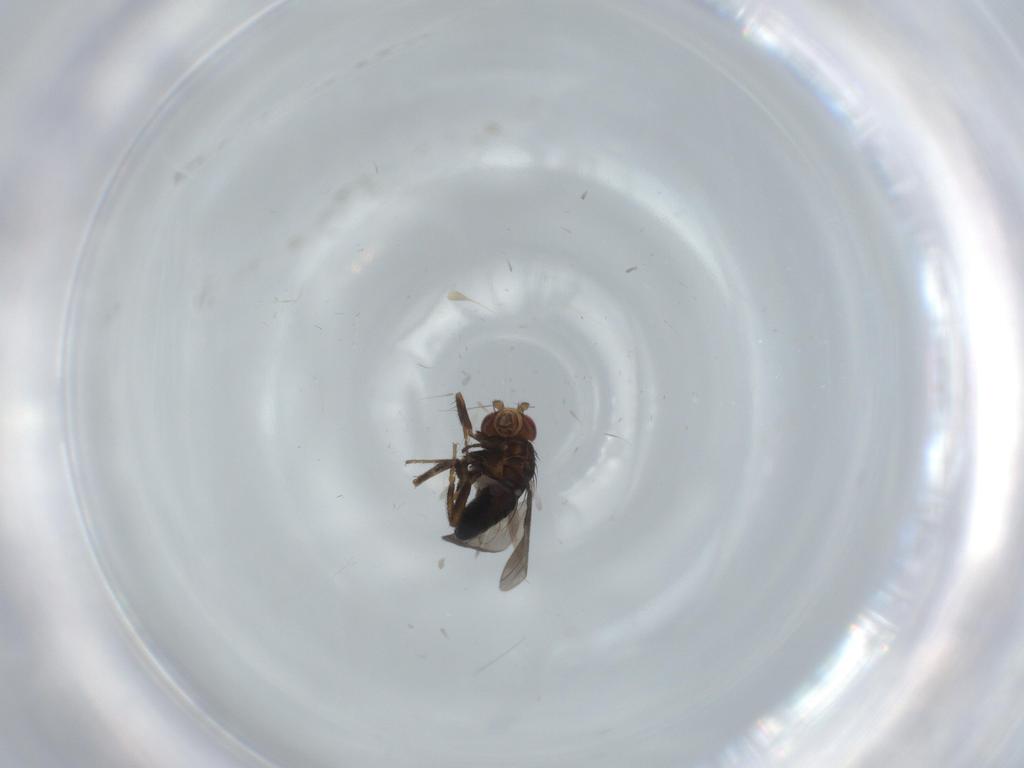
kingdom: Animalia
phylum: Arthropoda
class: Insecta
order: Diptera
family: Sphaeroceridae
